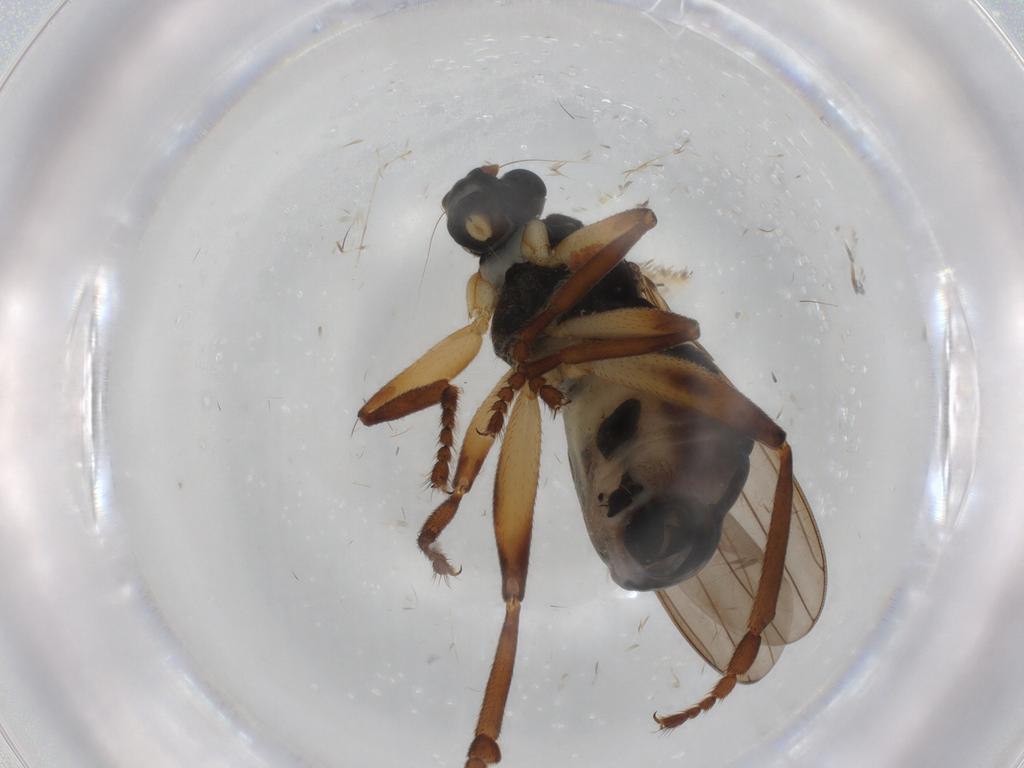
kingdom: Animalia
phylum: Arthropoda
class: Insecta
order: Diptera
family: Sphaeroceridae
